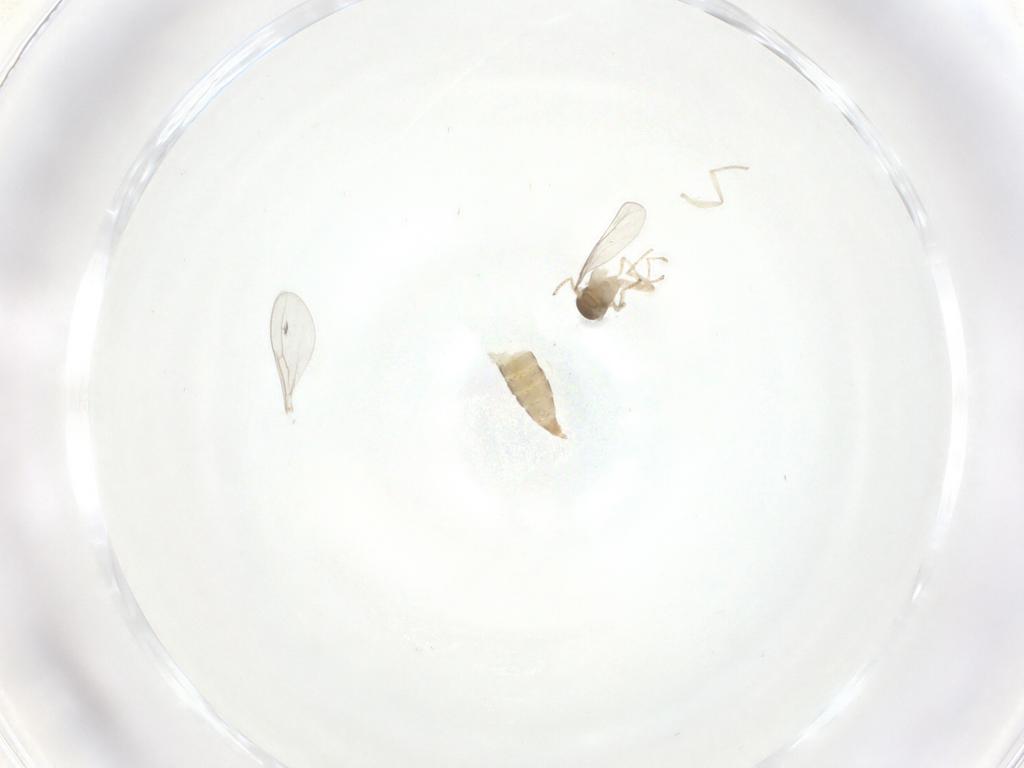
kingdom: Animalia
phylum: Arthropoda
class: Insecta
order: Diptera
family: Cecidomyiidae
